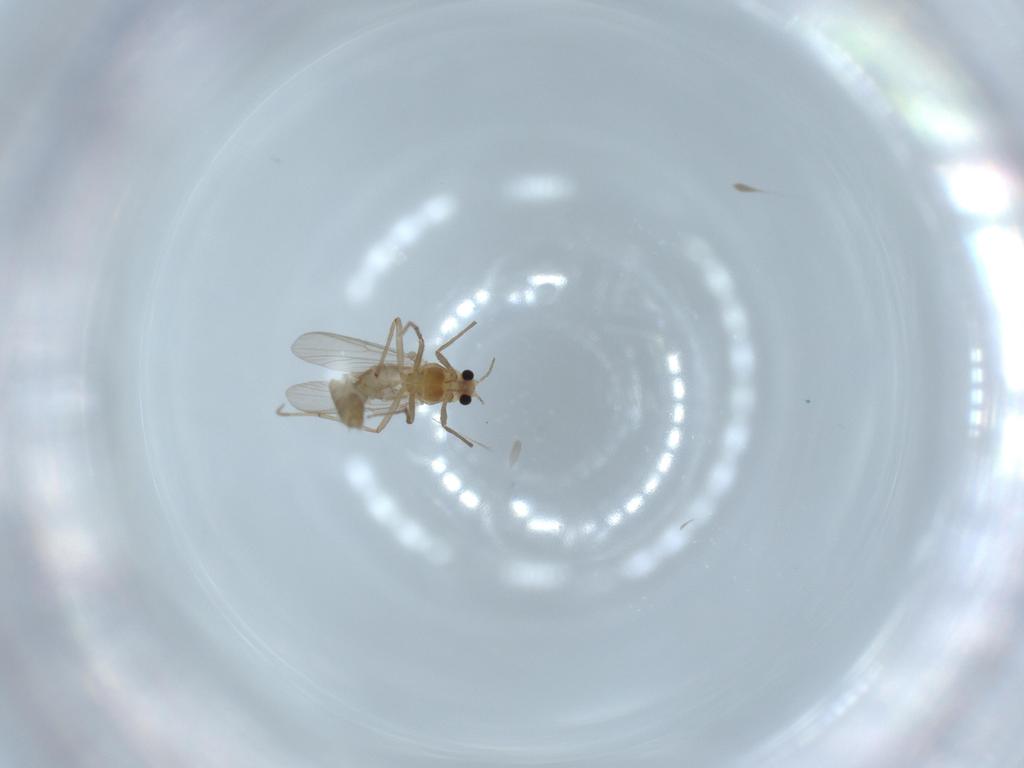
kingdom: Animalia
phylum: Arthropoda
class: Insecta
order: Diptera
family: Chironomidae
